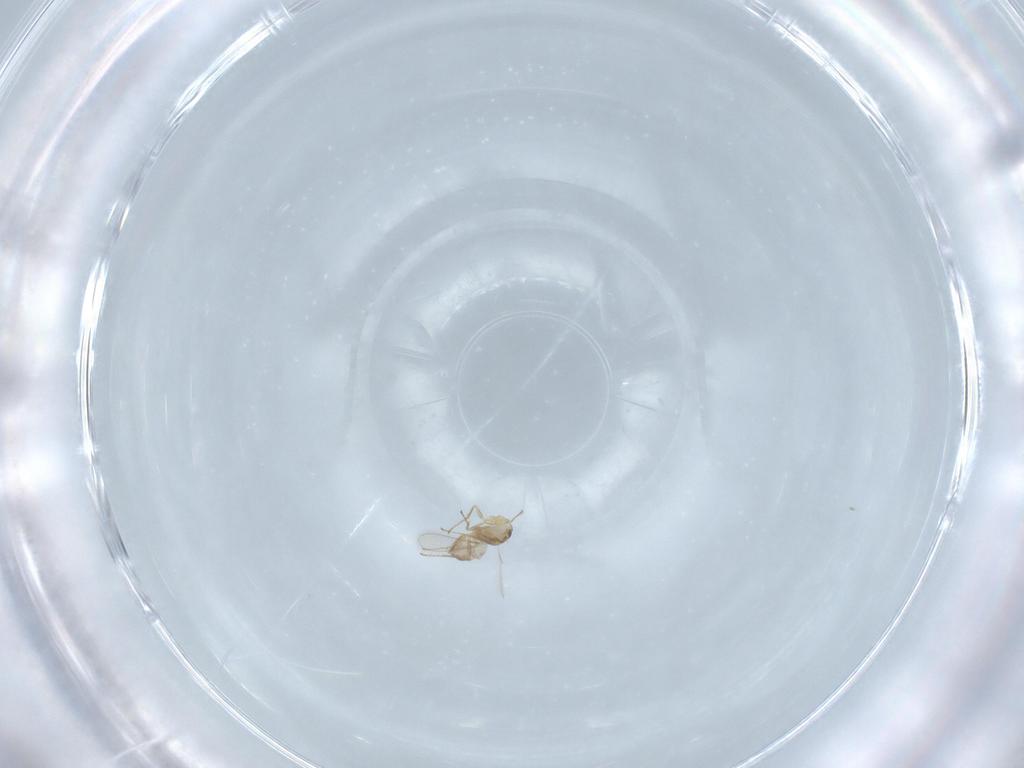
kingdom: Animalia
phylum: Arthropoda
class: Insecta
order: Hymenoptera
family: Mymaridae
